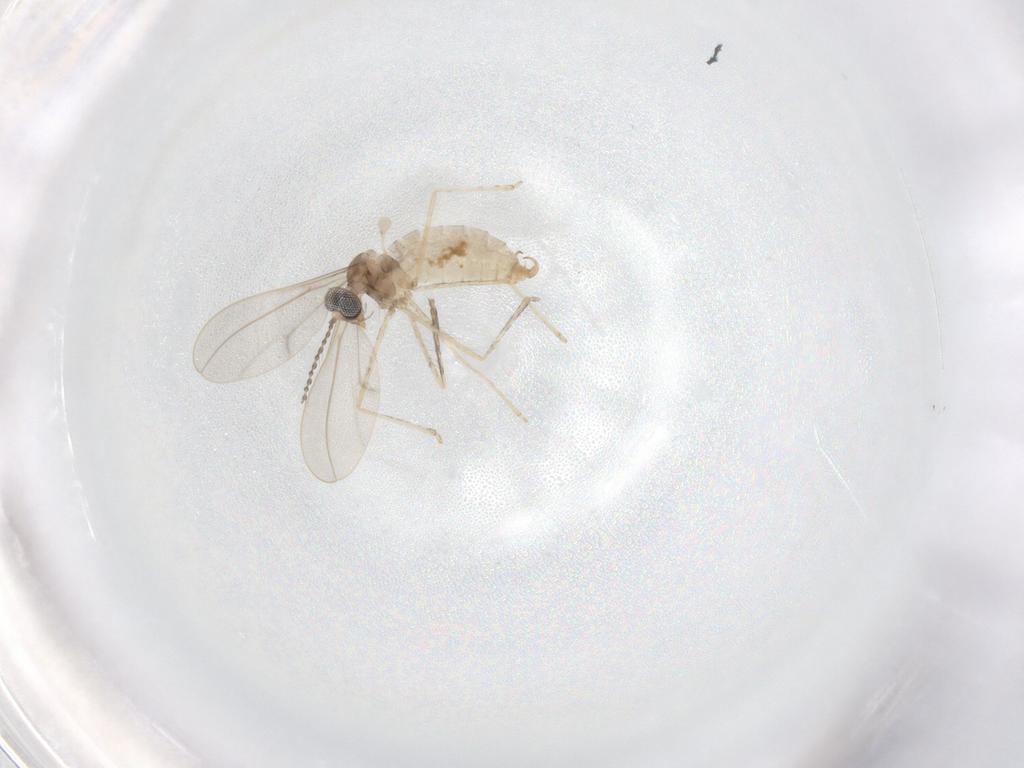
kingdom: Animalia
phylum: Arthropoda
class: Insecta
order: Diptera
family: Cecidomyiidae
